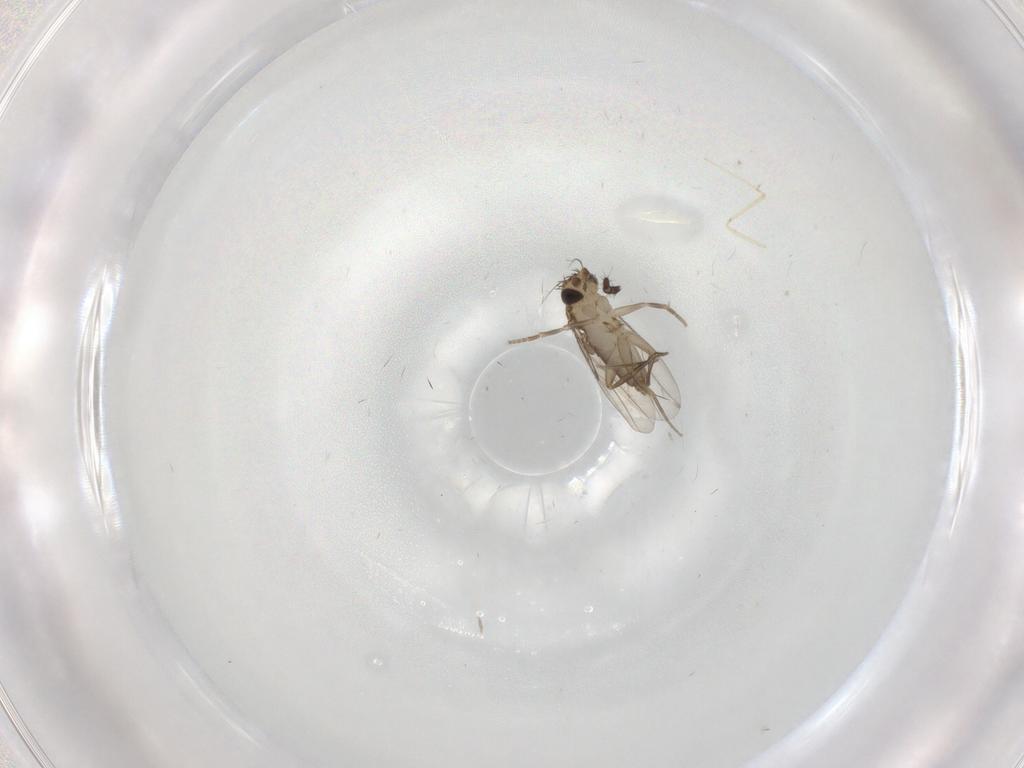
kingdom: Animalia
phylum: Arthropoda
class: Insecta
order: Diptera
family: Phoridae
